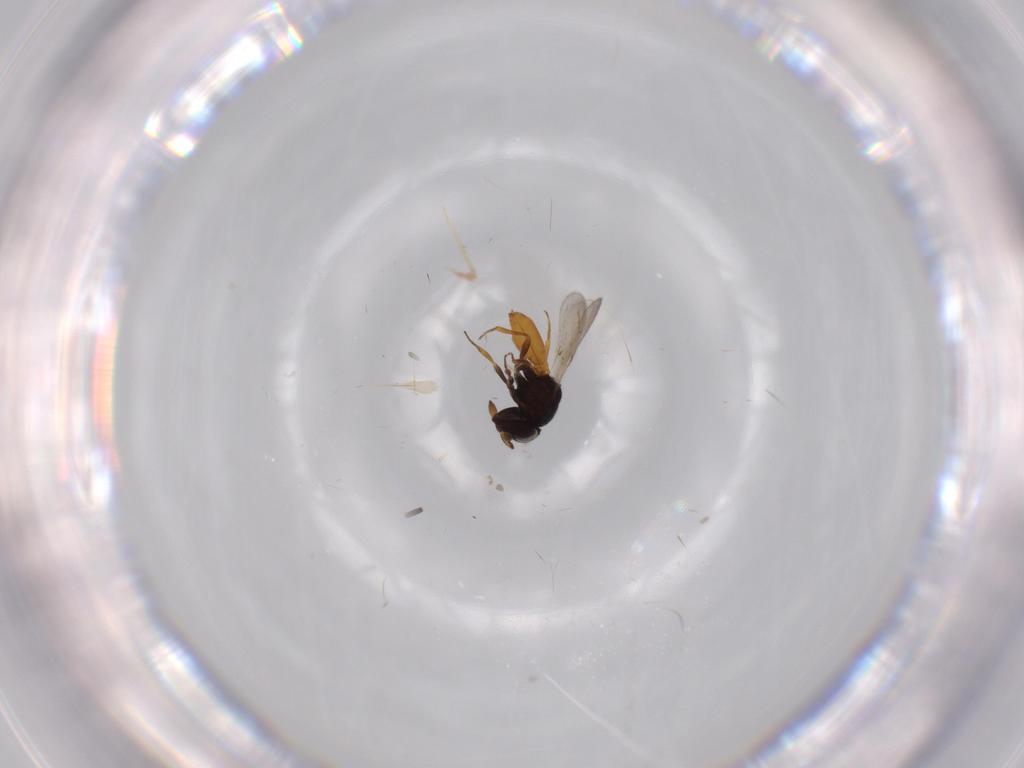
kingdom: Animalia
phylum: Arthropoda
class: Insecta
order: Hymenoptera
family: Scelionidae
